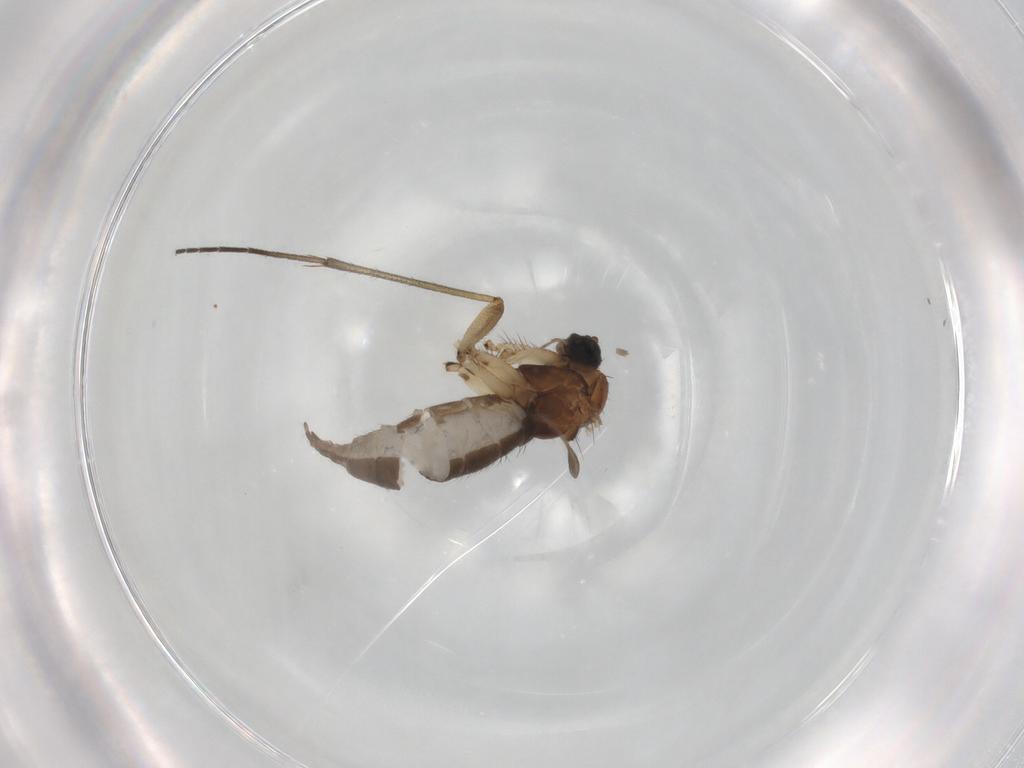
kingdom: Animalia
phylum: Arthropoda
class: Insecta
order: Diptera
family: Sciaridae
